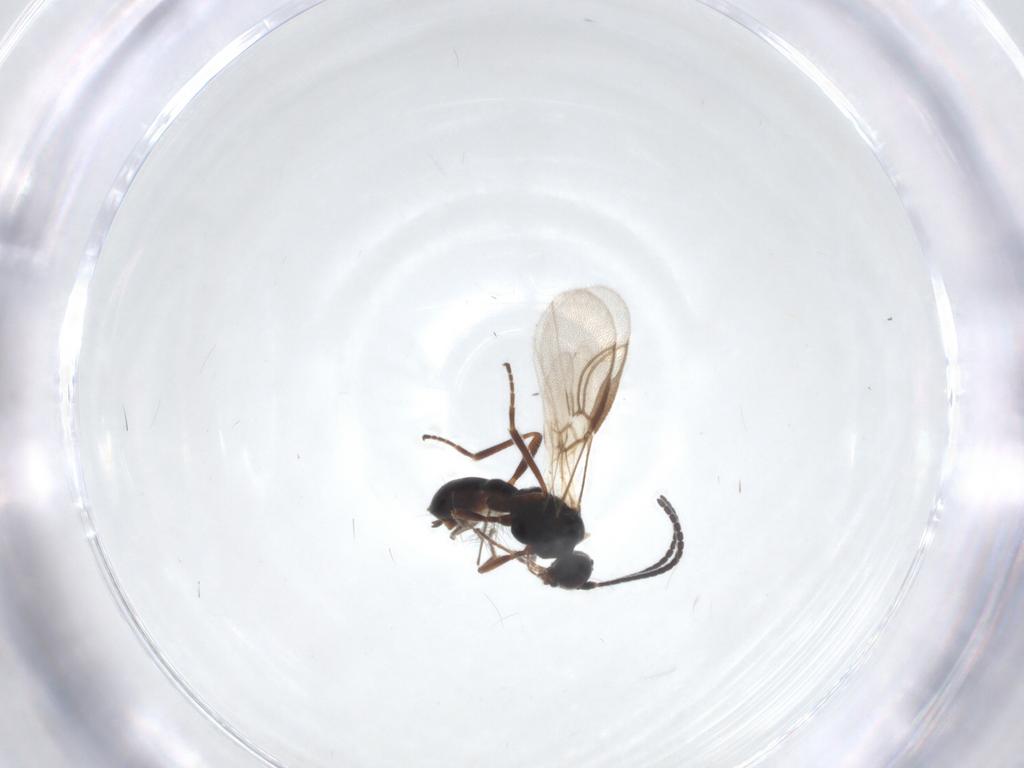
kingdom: Animalia
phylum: Arthropoda
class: Insecta
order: Hymenoptera
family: Braconidae
